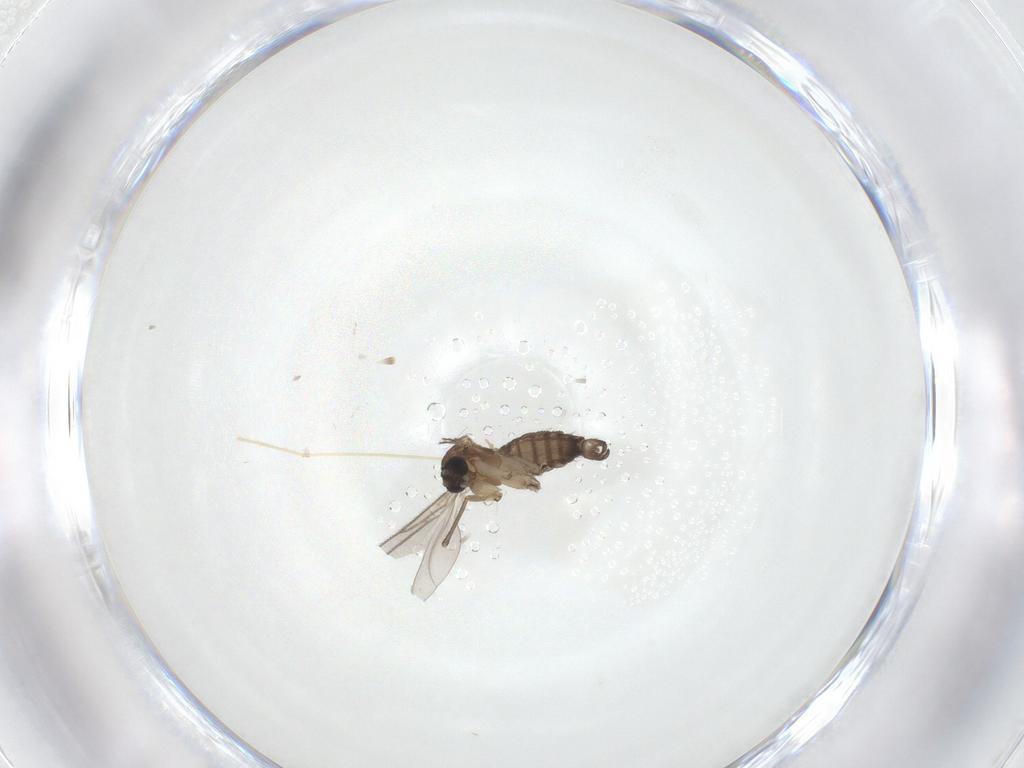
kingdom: Animalia
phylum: Arthropoda
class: Insecta
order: Diptera
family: Sciaridae
